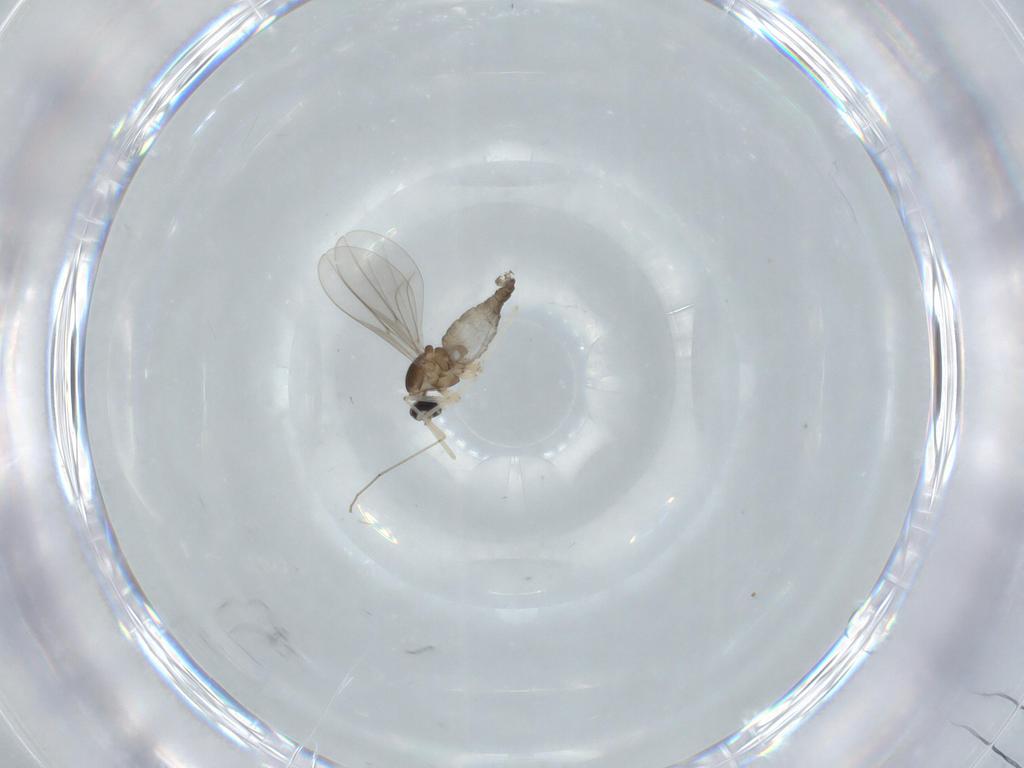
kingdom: Animalia
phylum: Arthropoda
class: Insecta
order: Diptera
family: Cecidomyiidae
